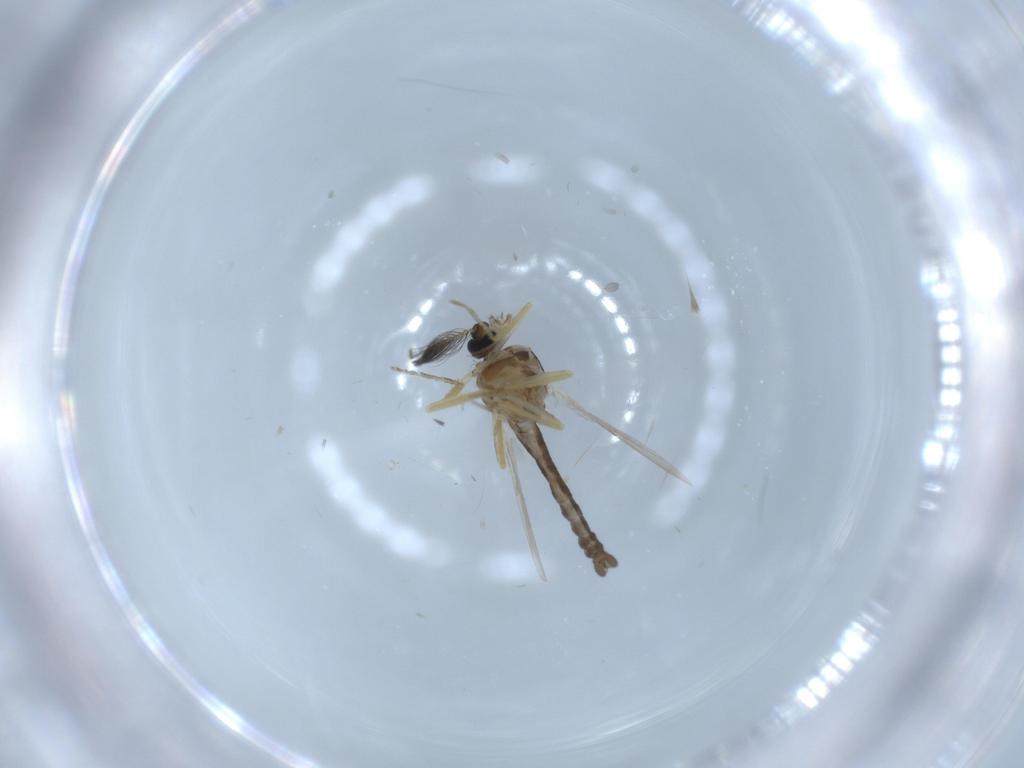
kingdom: Animalia
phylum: Arthropoda
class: Insecta
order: Diptera
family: Ceratopogonidae
